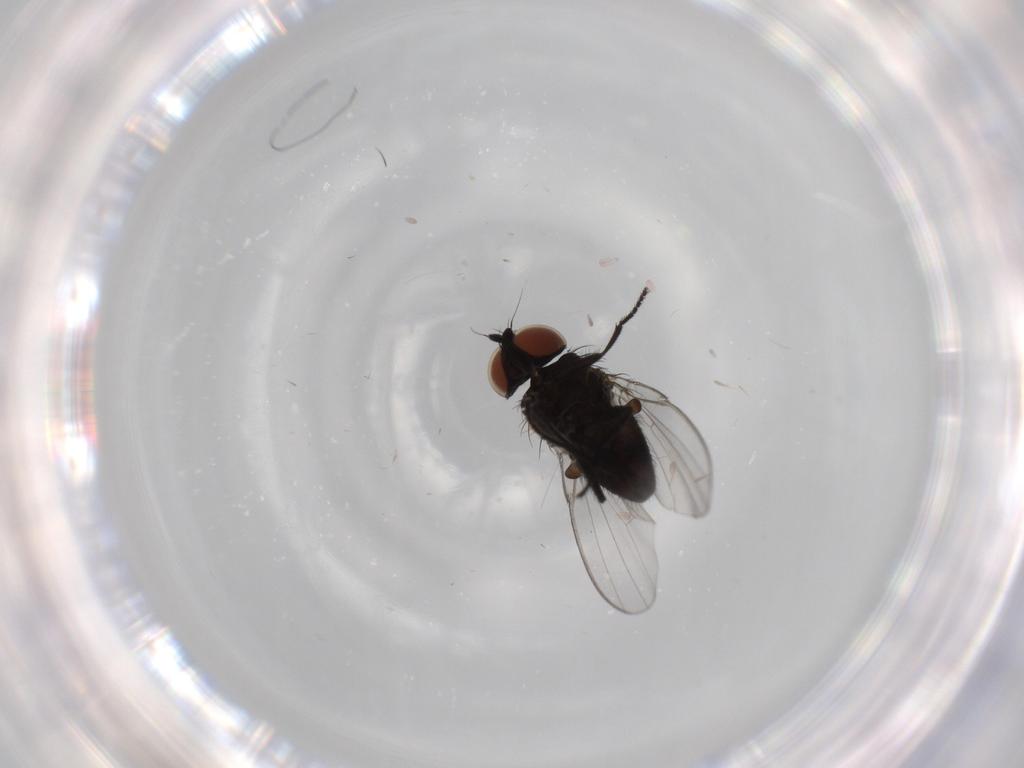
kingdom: Animalia
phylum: Arthropoda
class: Insecta
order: Diptera
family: Milichiidae
